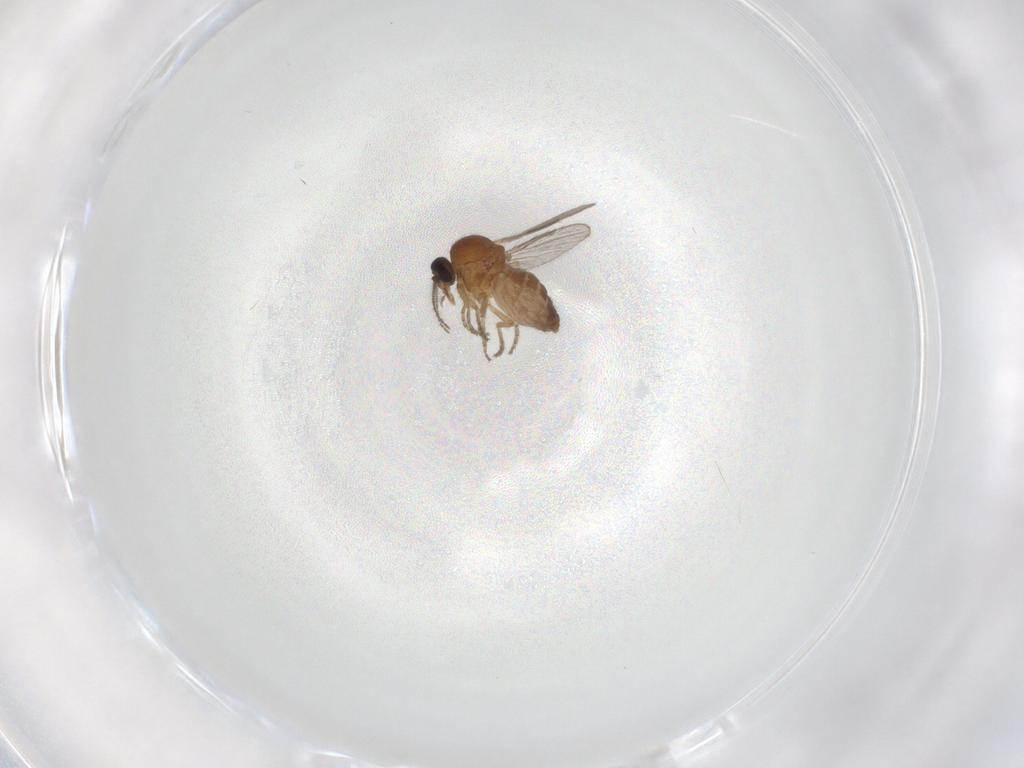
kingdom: Animalia
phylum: Arthropoda
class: Insecta
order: Diptera
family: Ceratopogonidae
